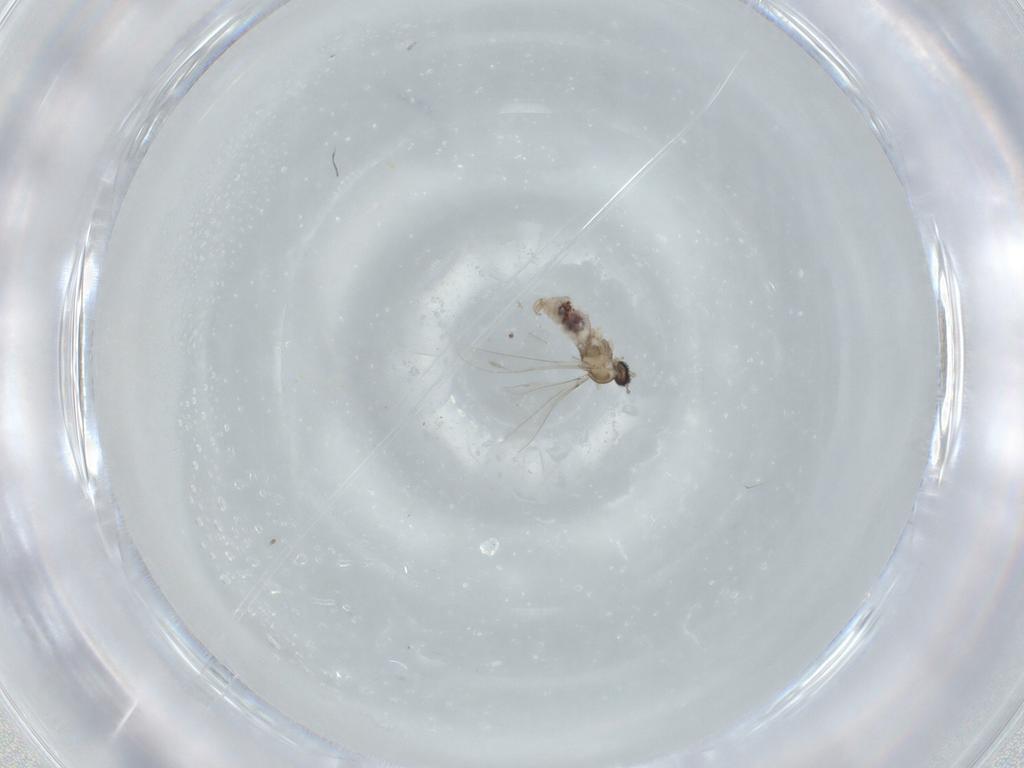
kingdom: Animalia
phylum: Arthropoda
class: Insecta
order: Diptera
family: Cecidomyiidae
